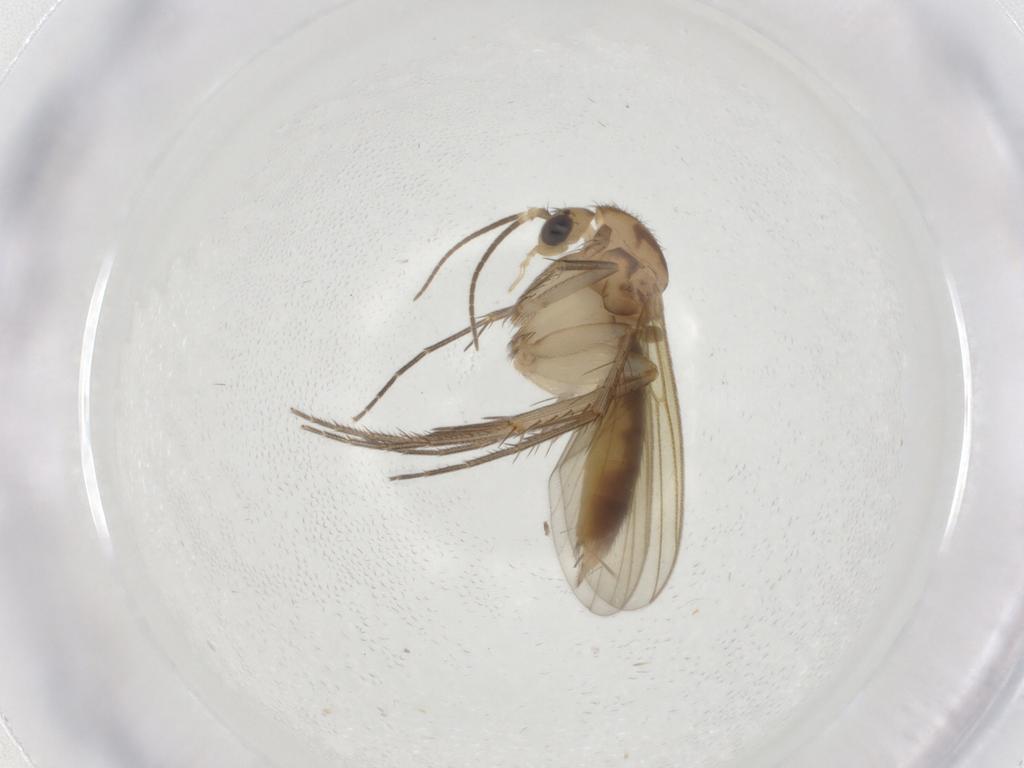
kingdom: Animalia
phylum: Arthropoda
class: Insecta
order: Diptera
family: Mycetophilidae
